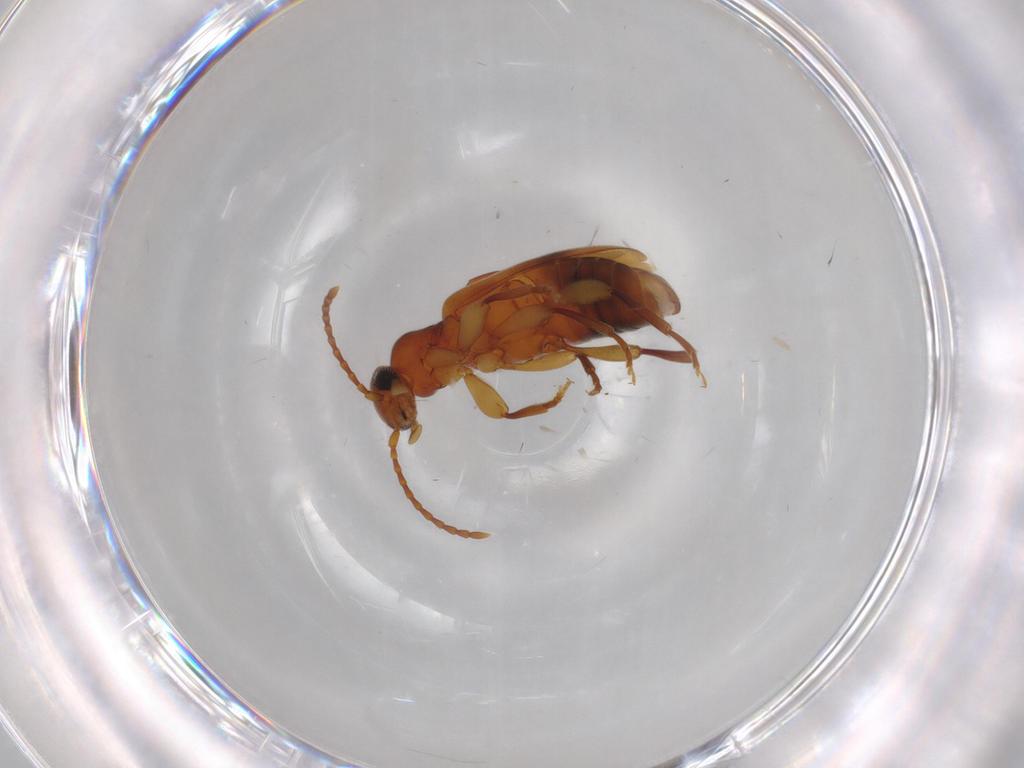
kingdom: Animalia
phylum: Arthropoda
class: Insecta
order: Coleoptera
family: Anthicidae
